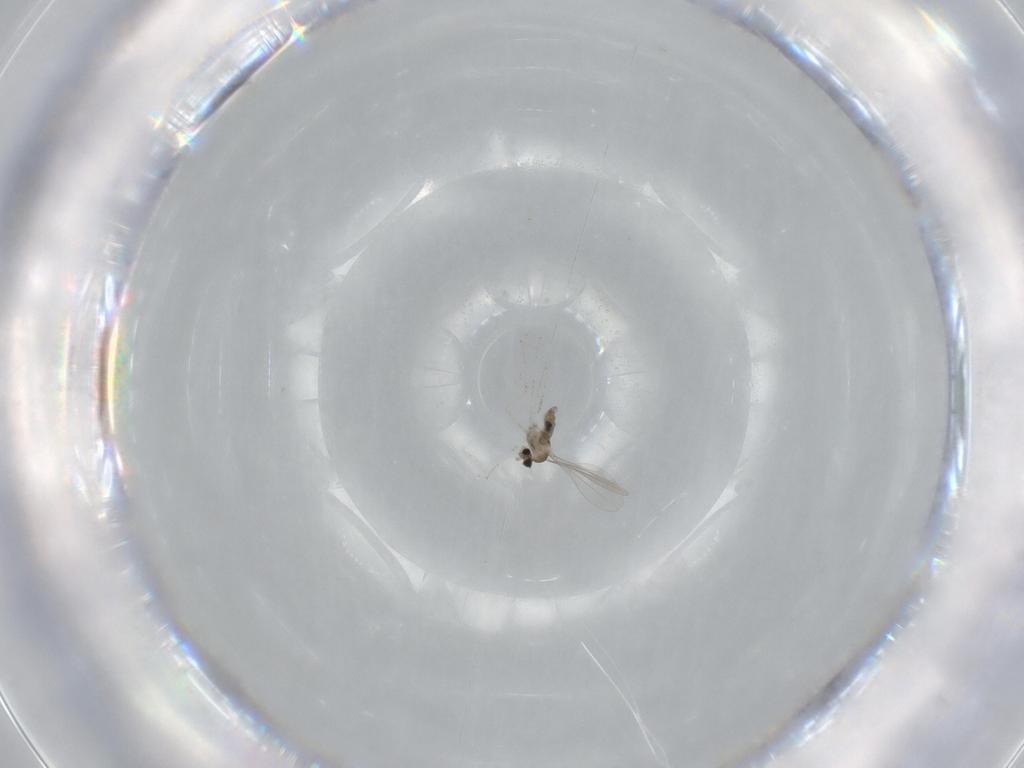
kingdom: Animalia
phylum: Arthropoda
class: Insecta
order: Diptera
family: Cecidomyiidae
